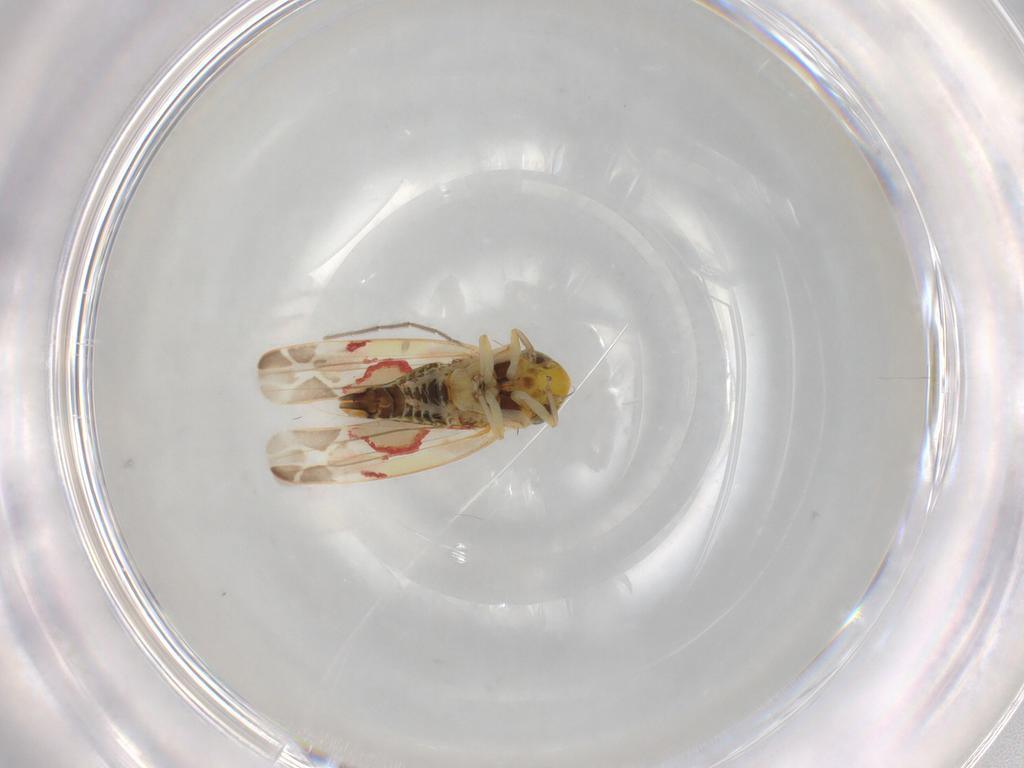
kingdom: Animalia
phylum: Arthropoda
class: Insecta
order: Hemiptera
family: Cicadellidae
